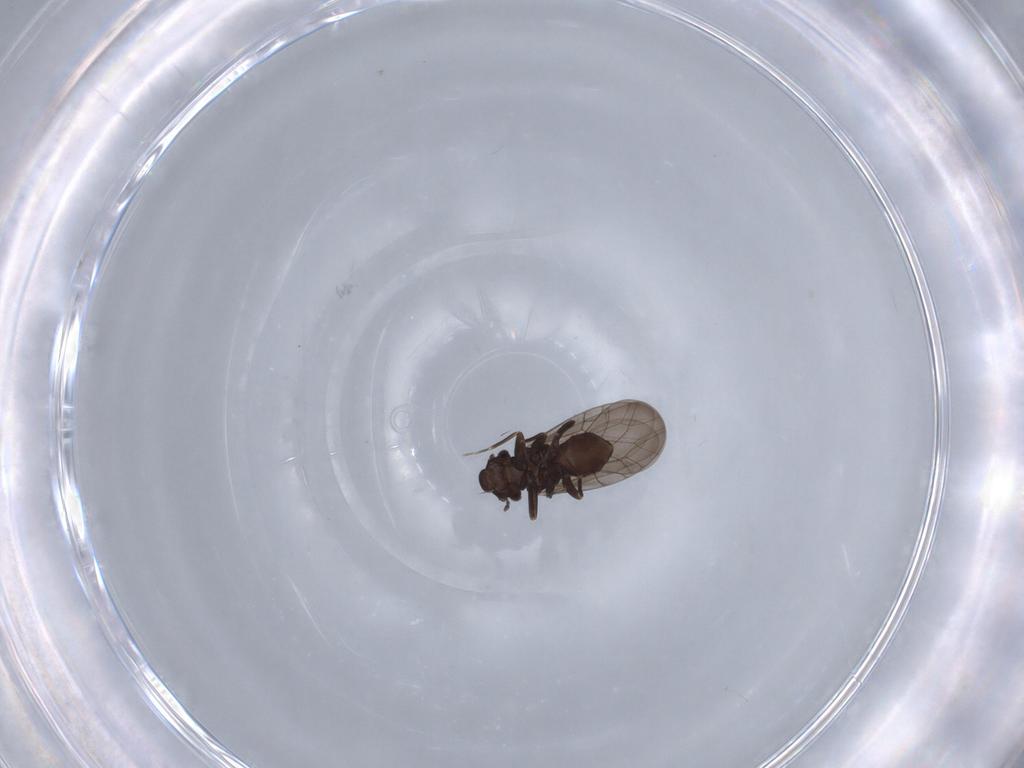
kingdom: Animalia
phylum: Arthropoda
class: Insecta
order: Psocodea
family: Lepidopsocidae
